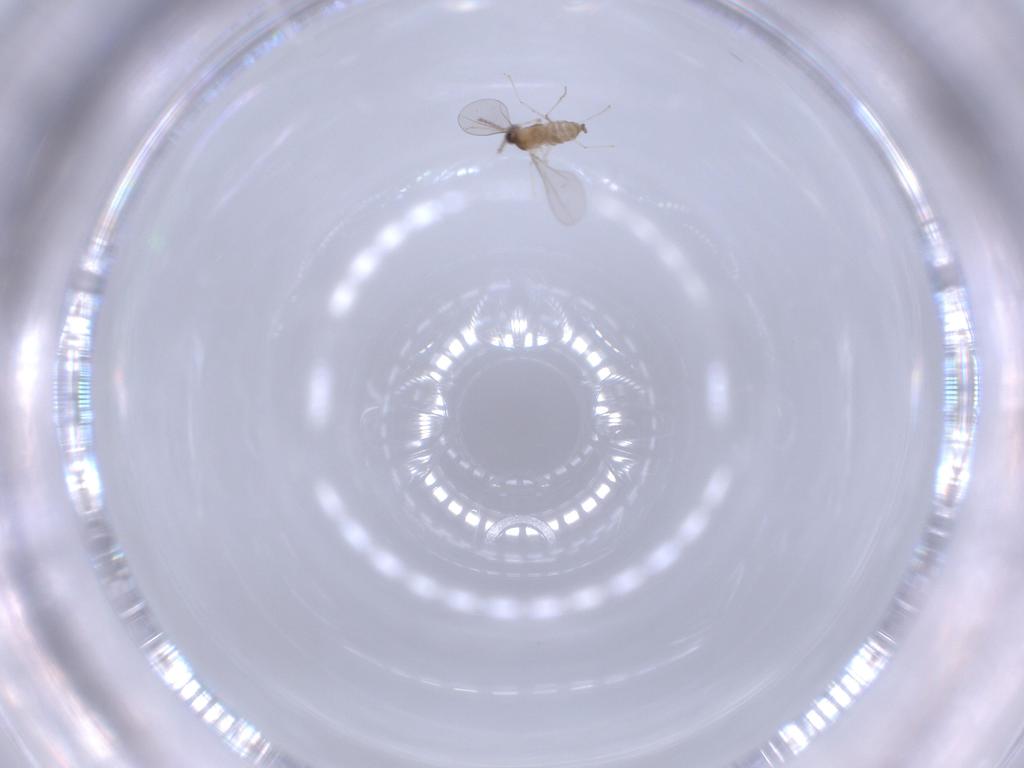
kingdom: Animalia
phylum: Arthropoda
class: Insecta
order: Diptera
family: Cecidomyiidae
